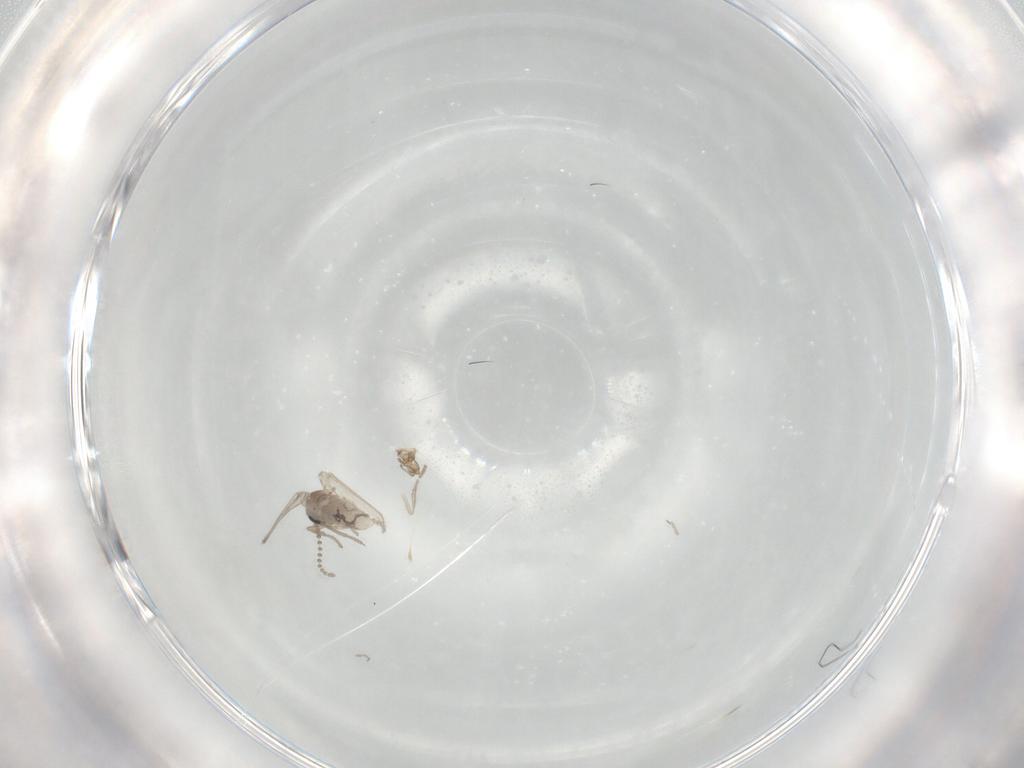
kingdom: Animalia
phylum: Arthropoda
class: Insecta
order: Diptera
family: Psychodidae
